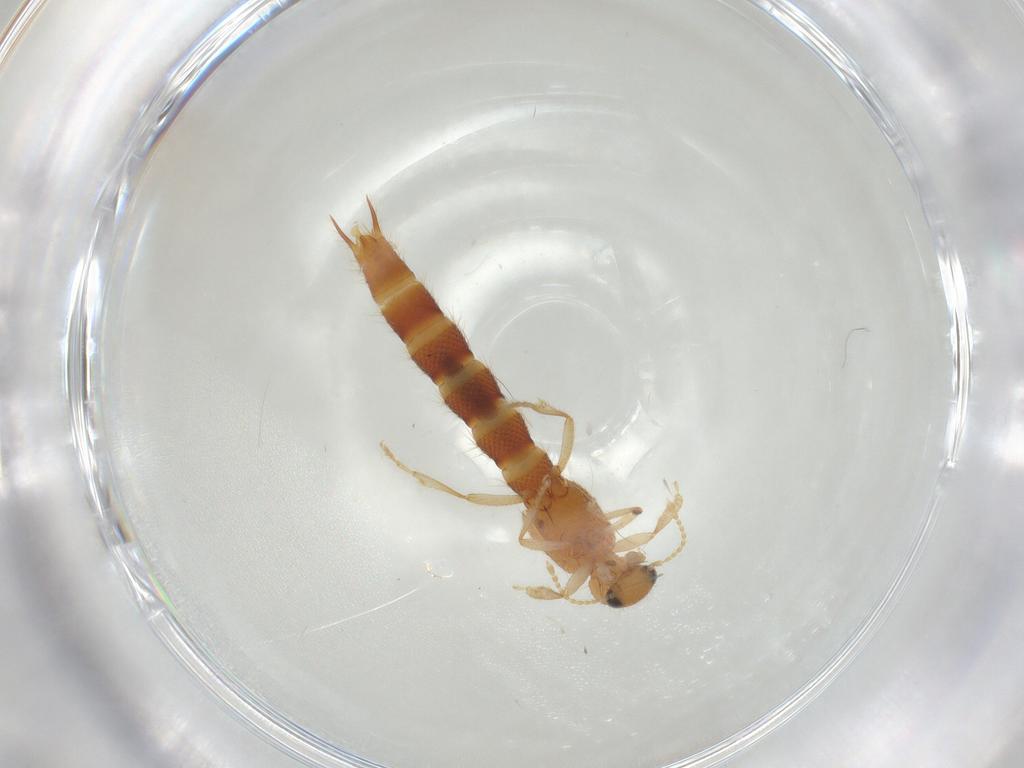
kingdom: Animalia
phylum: Arthropoda
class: Insecta
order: Coleoptera
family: Staphylinidae
